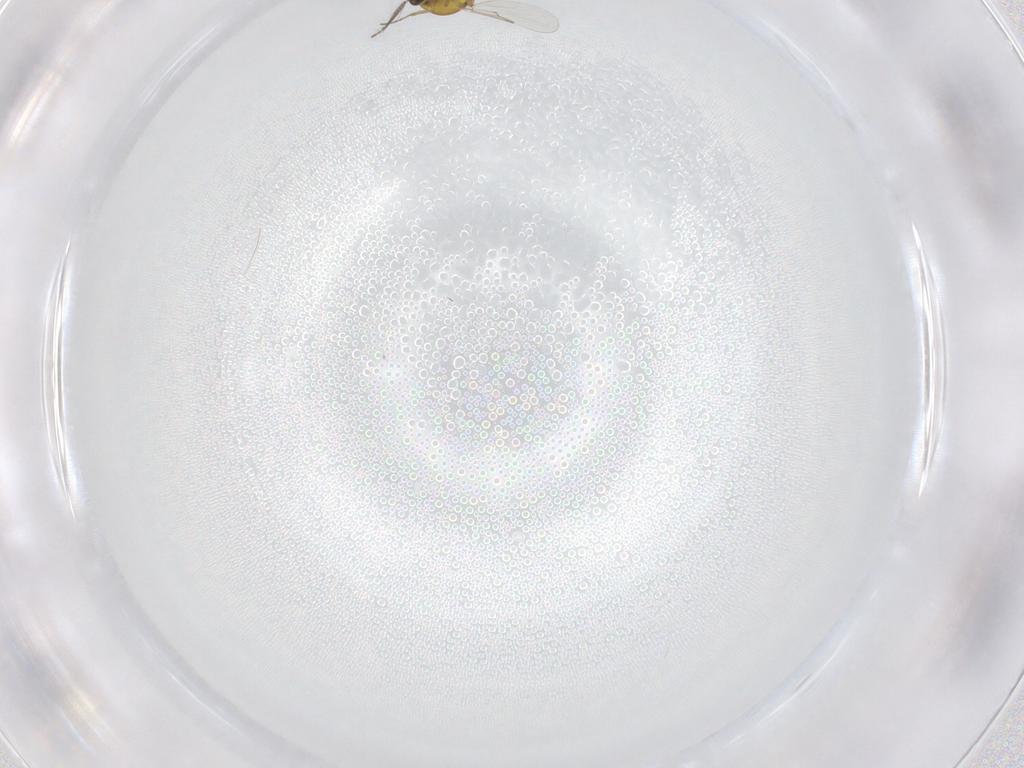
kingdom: Animalia
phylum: Arthropoda
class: Insecta
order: Diptera
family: Ceratopogonidae
